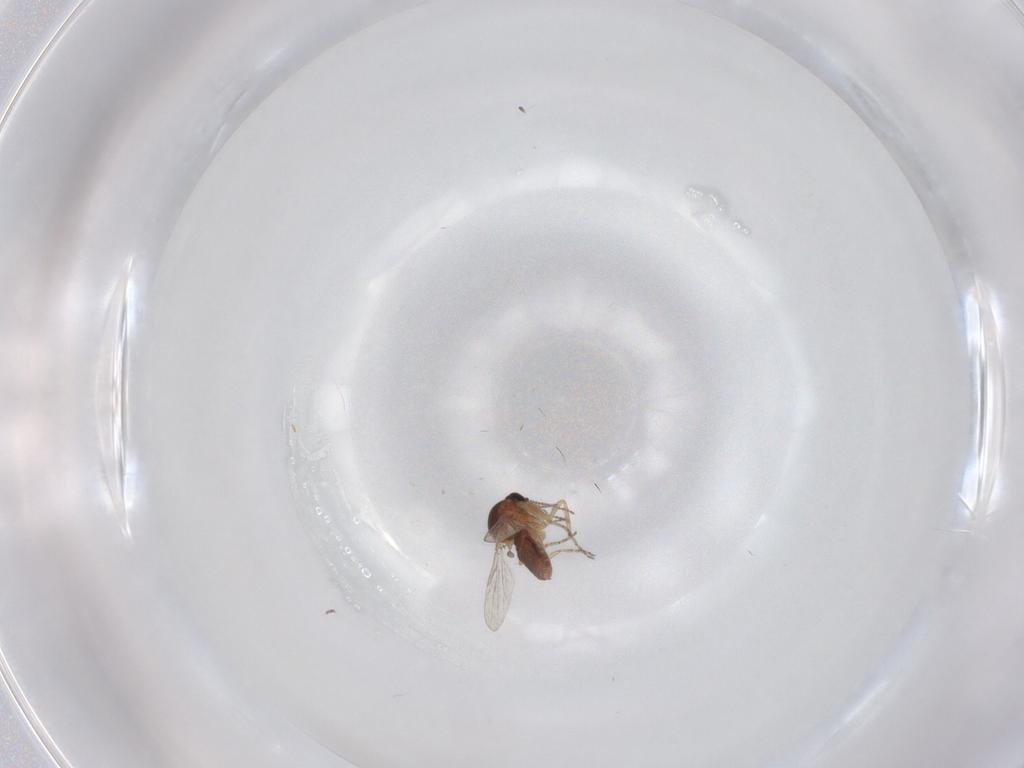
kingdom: Animalia
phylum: Arthropoda
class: Insecta
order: Diptera
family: Ceratopogonidae
